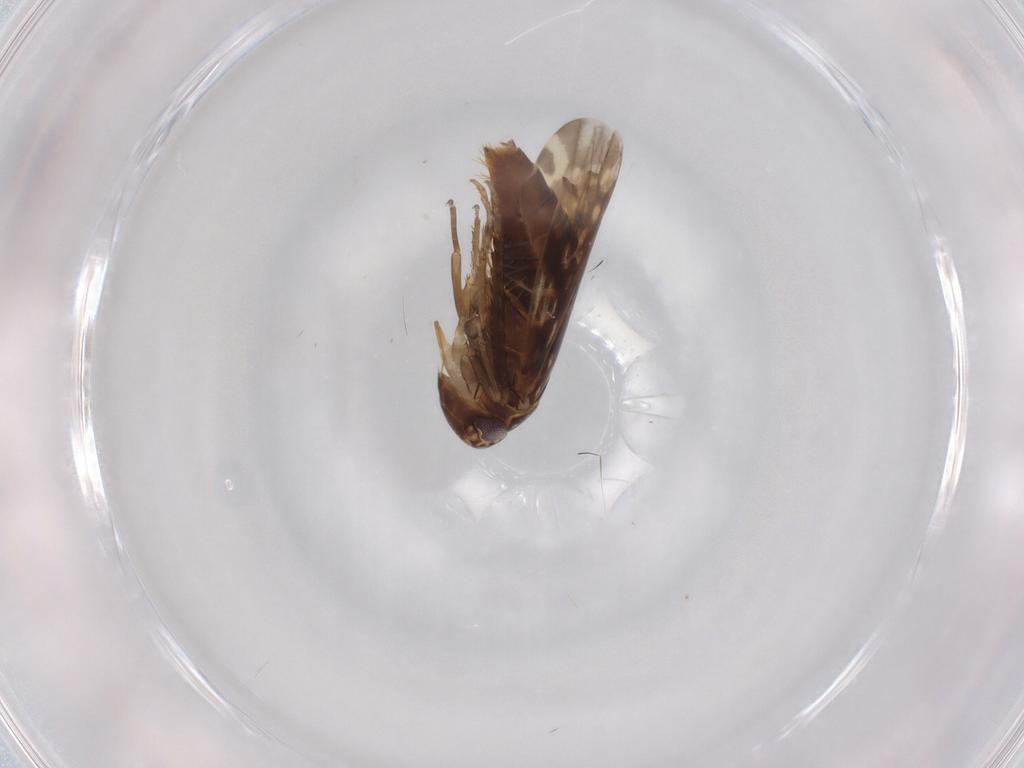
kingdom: Animalia
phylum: Arthropoda
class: Insecta
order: Hemiptera
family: Cicadellidae
